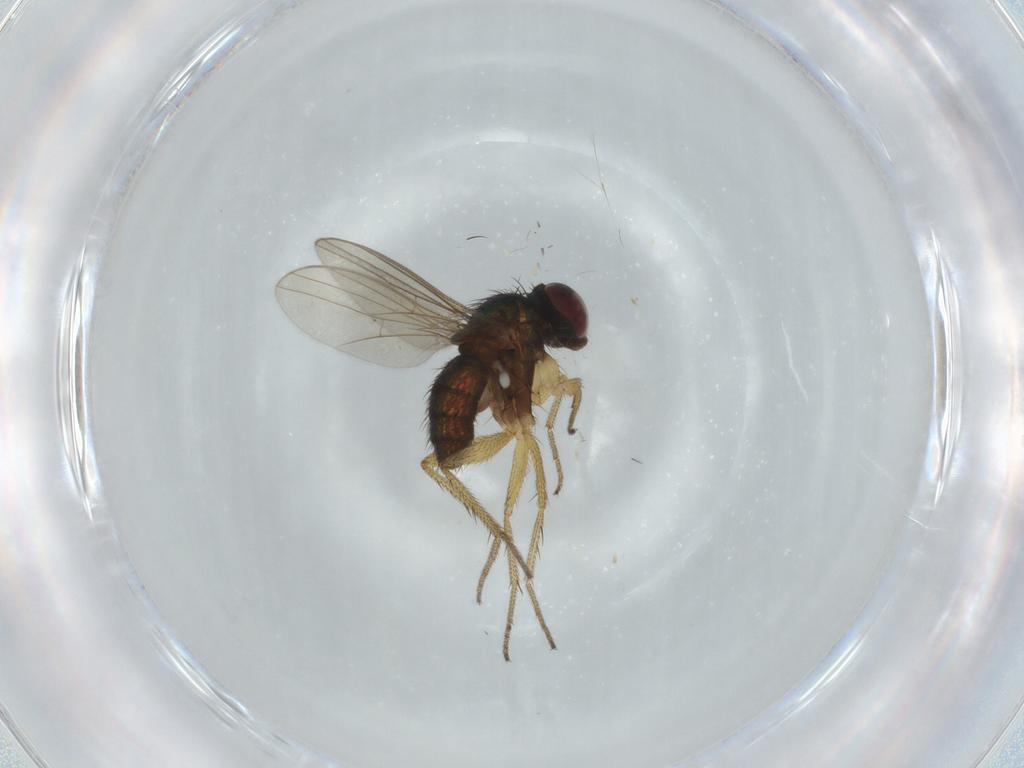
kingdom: Animalia
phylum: Arthropoda
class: Insecta
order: Diptera
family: Dolichopodidae
